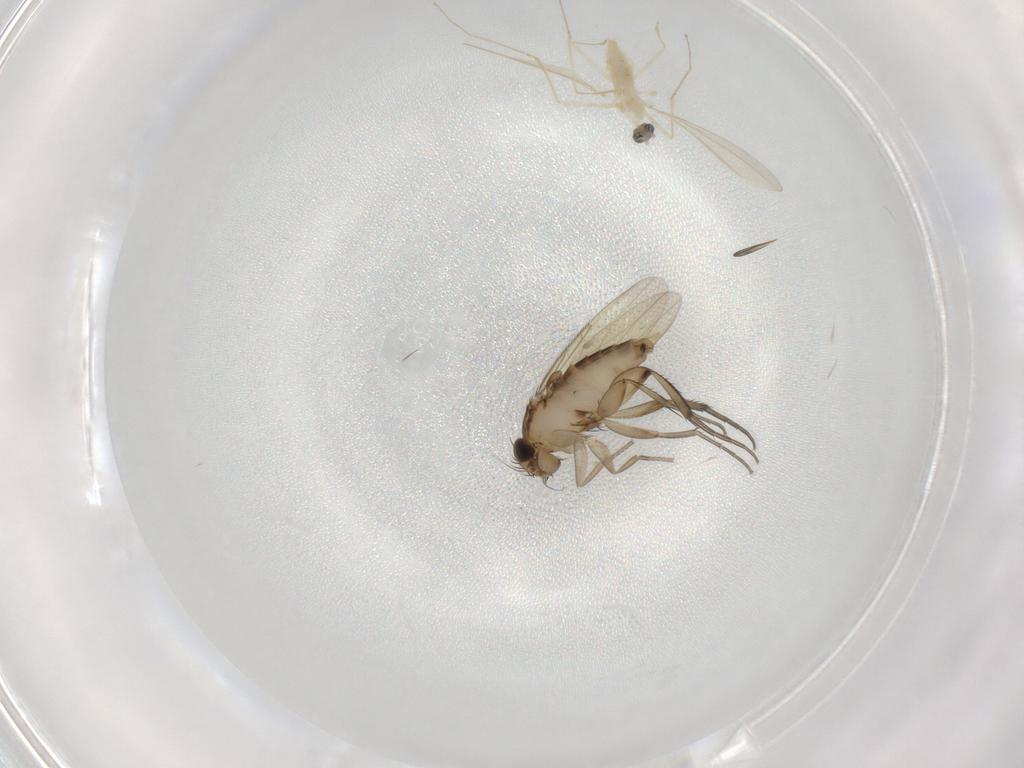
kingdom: Animalia
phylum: Arthropoda
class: Insecta
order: Diptera
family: Phoridae
